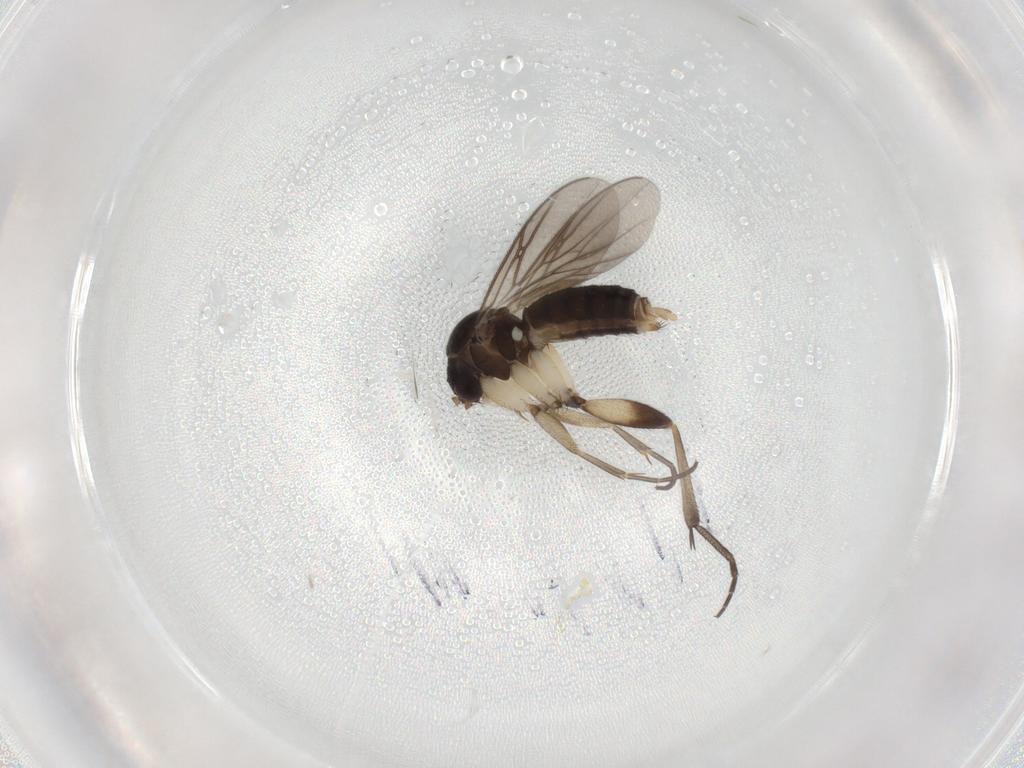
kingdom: Animalia
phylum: Arthropoda
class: Insecta
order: Diptera
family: Mycetophilidae
